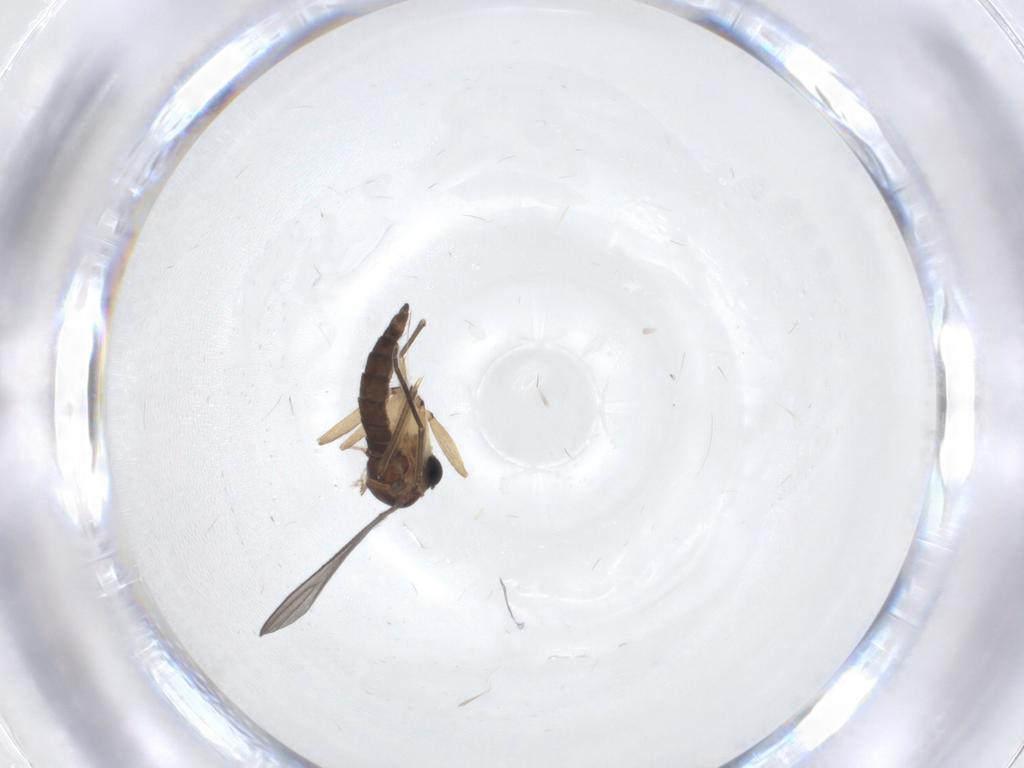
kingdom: Animalia
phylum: Arthropoda
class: Insecta
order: Diptera
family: Sciaridae
